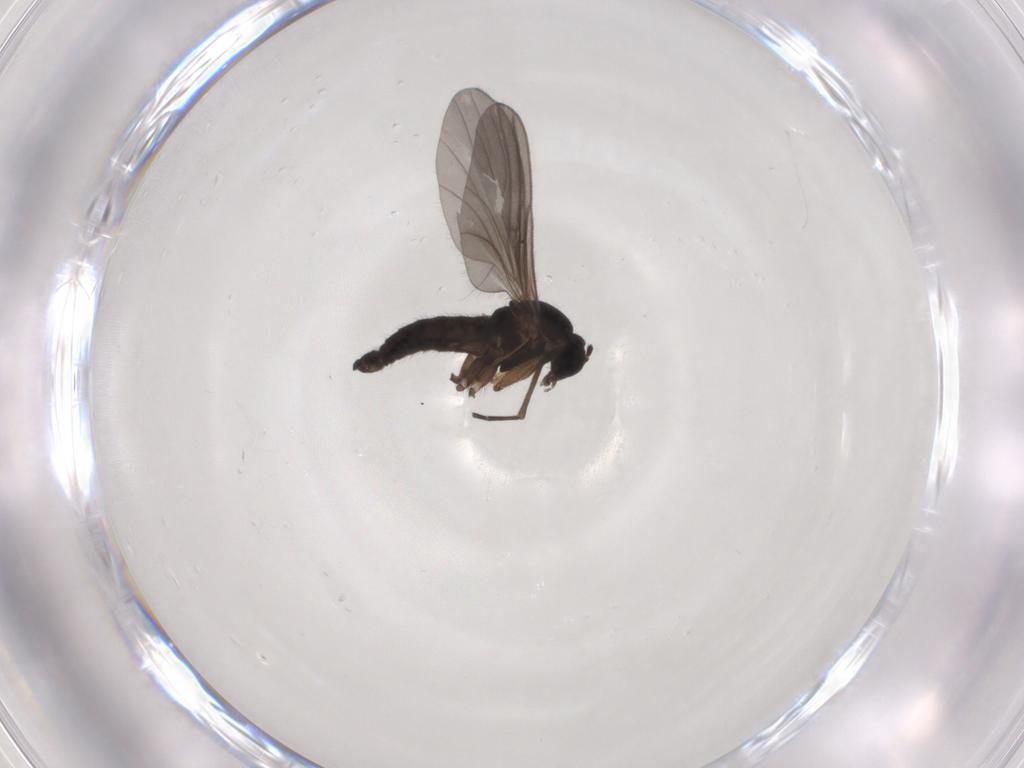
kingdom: Animalia
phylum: Arthropoda
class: Insecta
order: Diptera
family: Sciaridae
